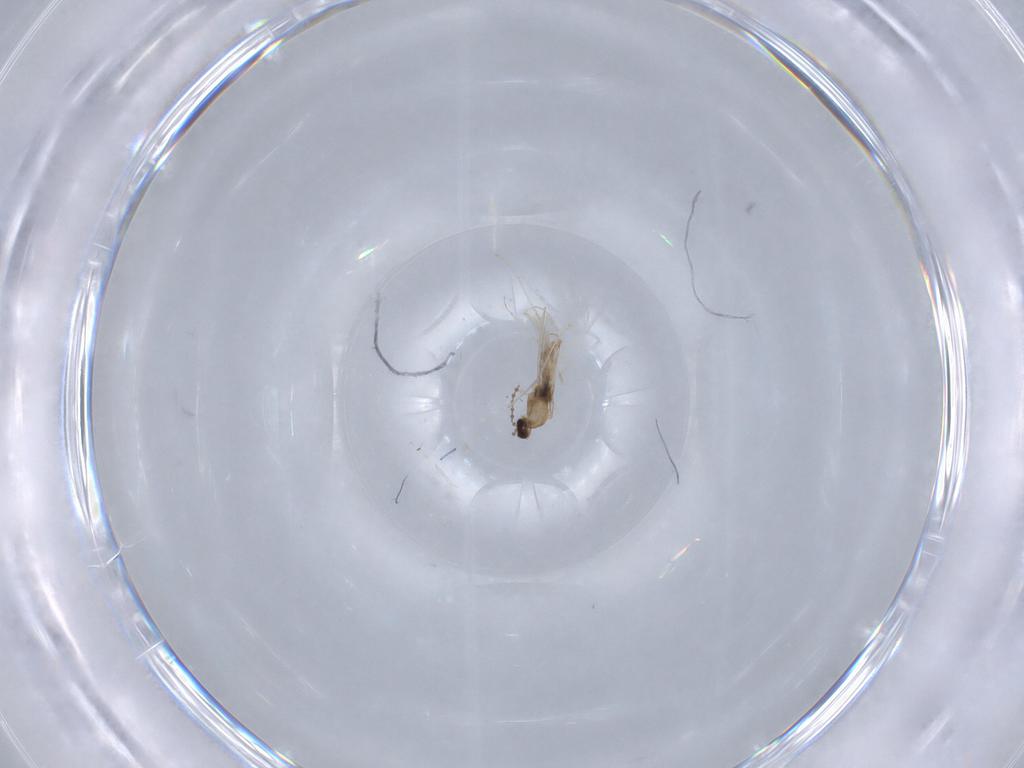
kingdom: Animalia
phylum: Arthropoda
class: Insecta
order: Diptera
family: Cecidomyiidae
